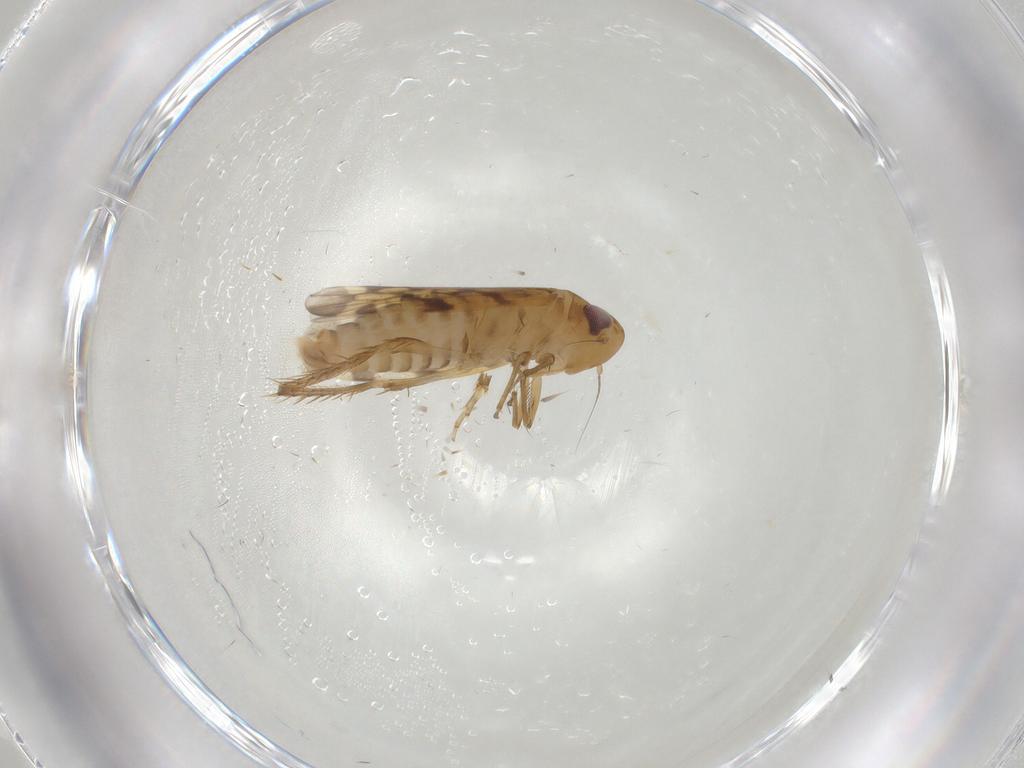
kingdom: Animalia
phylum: Arthropoda
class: Insecta
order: Hemiptera
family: Cicadellidae
